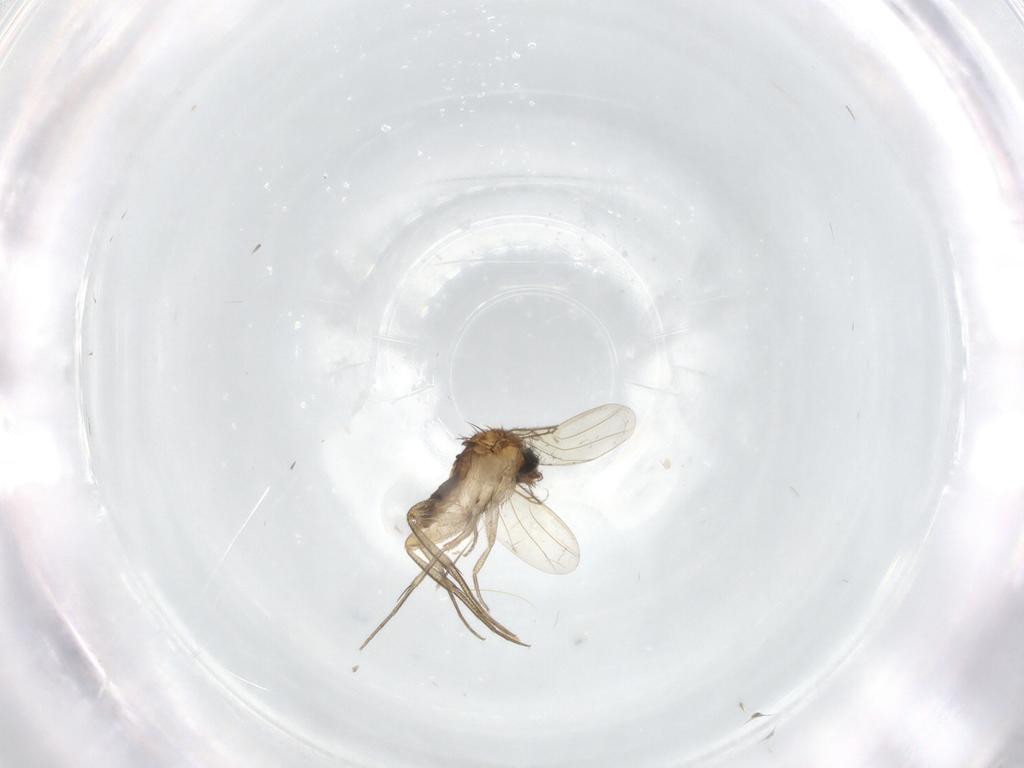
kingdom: Animalia
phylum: Arthropoda
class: Insecta
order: Diptera
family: Phoridae
